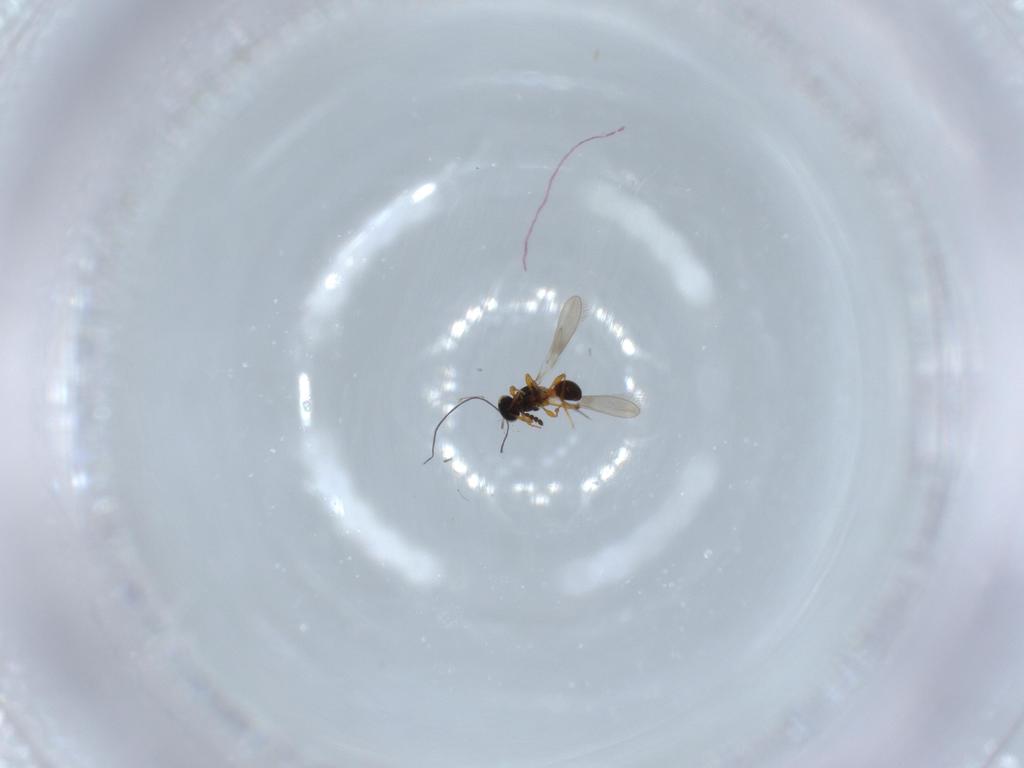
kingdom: Animalia
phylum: Arthropoda
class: Insecta
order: Hymenoptera
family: Platygastridae
